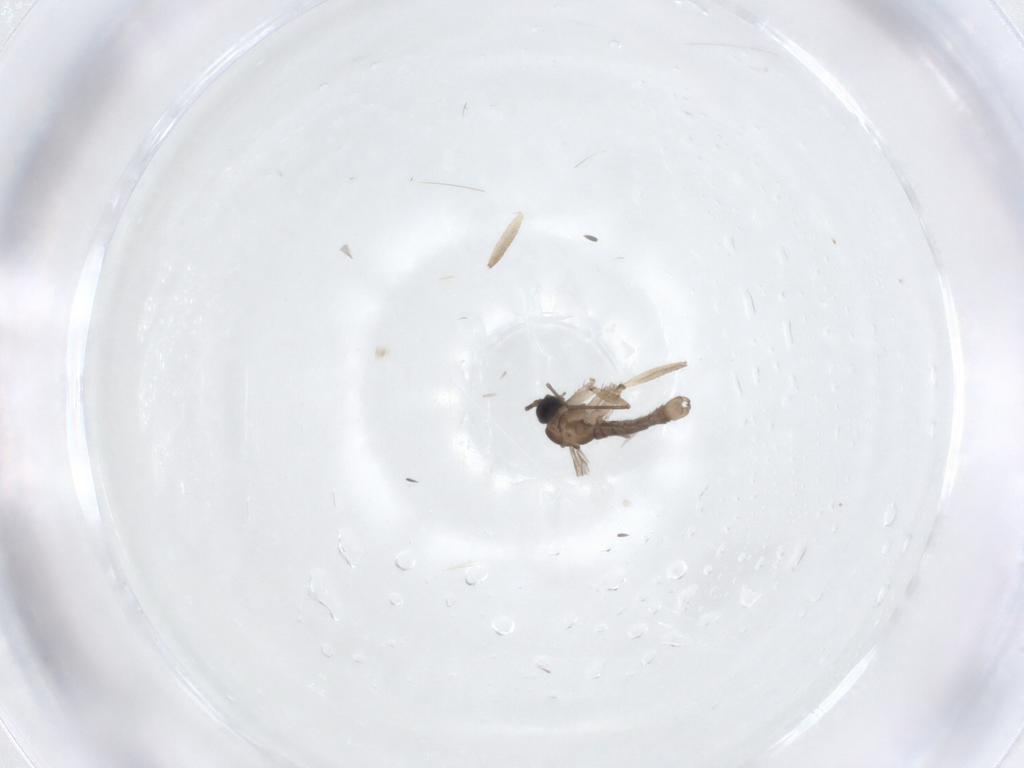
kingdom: Animalia
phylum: Arthropoda
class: Insecta
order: Diptera
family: Sciaridae
